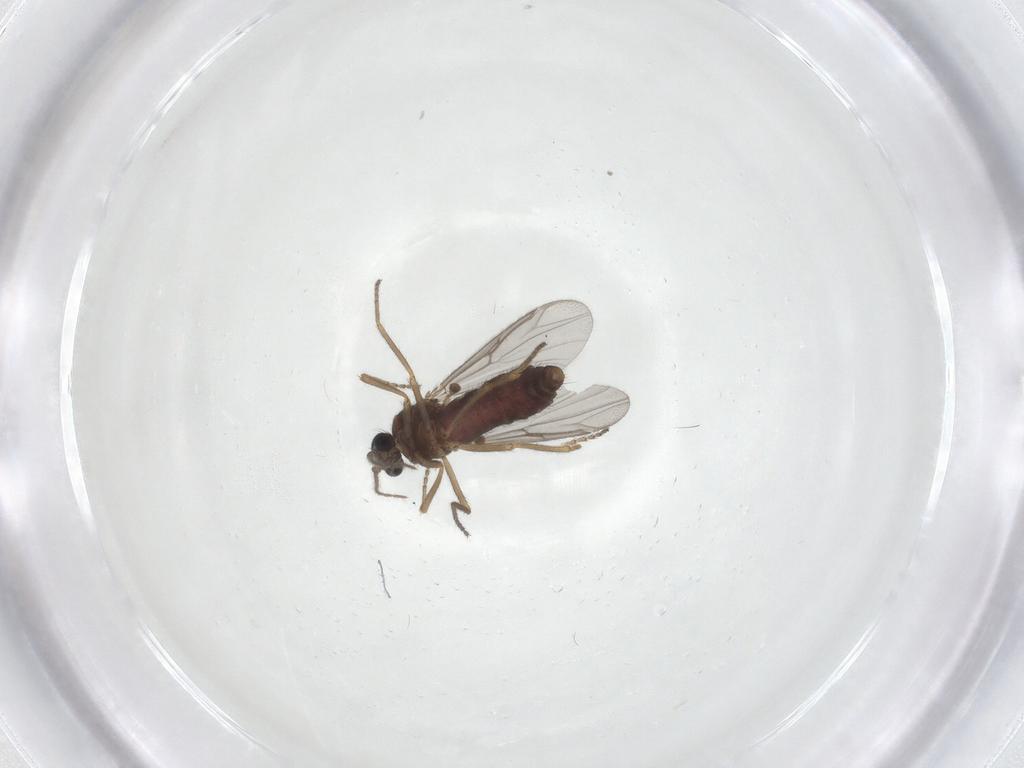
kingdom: Animalia
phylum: Arthropoda
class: Insecta
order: Diptera
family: Ceratopogonidae
